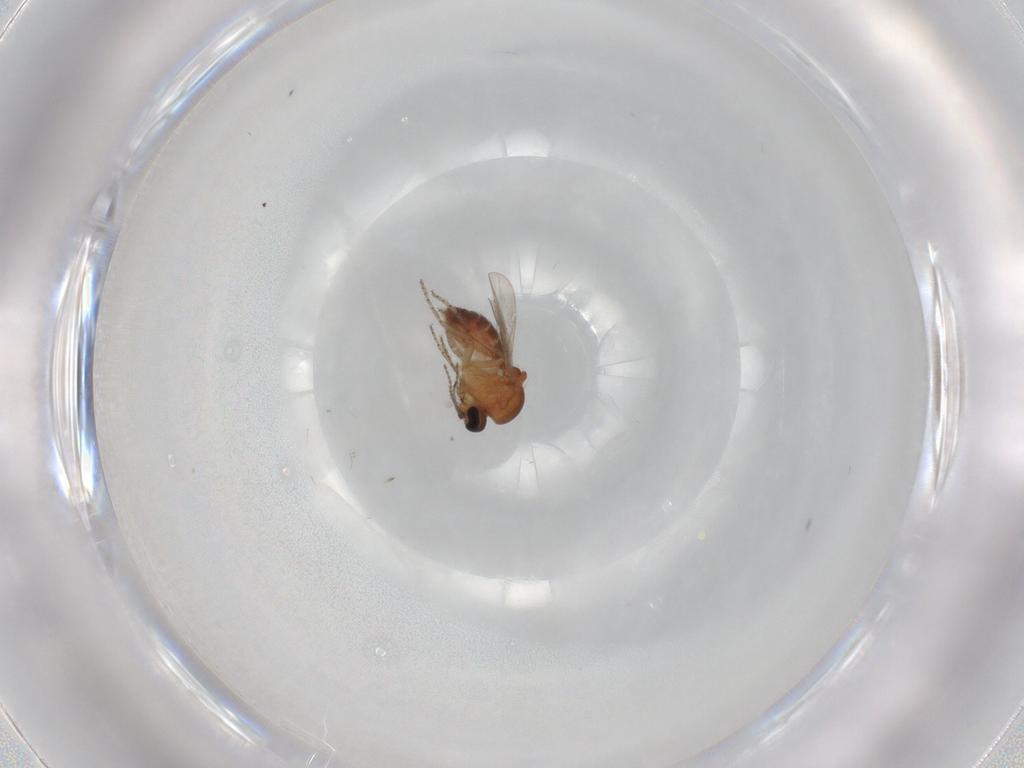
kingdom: Animalia
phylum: Arthropoda
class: Insecta
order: Diptera
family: Ceratopogonidae
